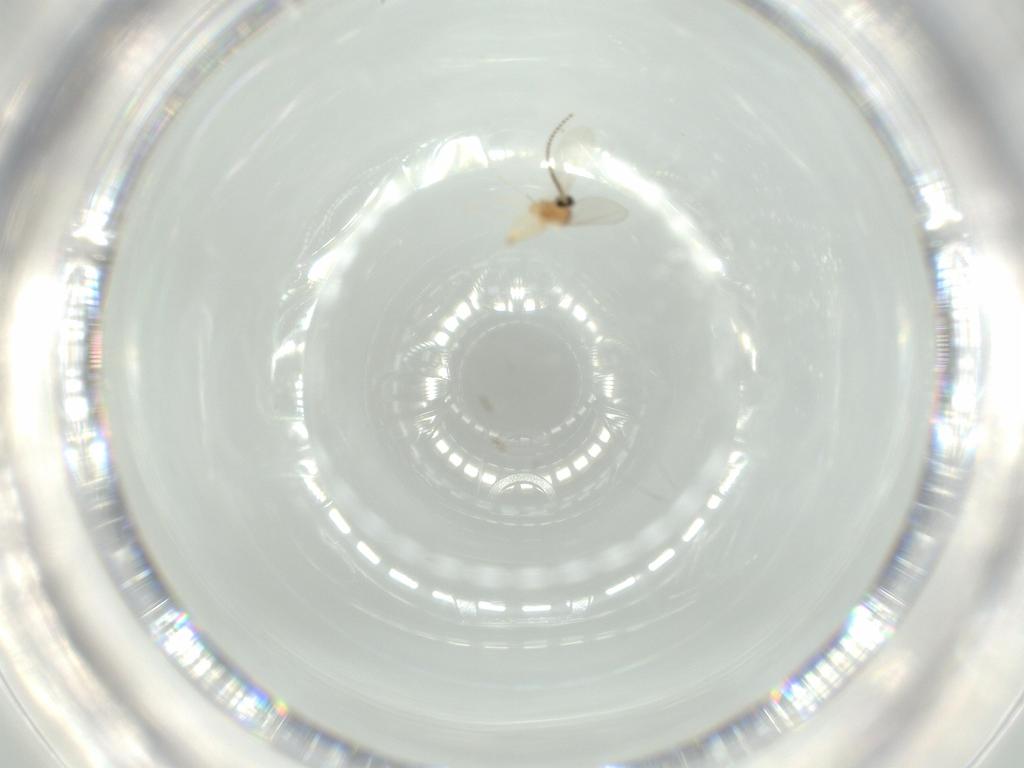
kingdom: Animalia
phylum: Arthropoda
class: Insecta
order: Diptera
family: Cecidomyiidae
